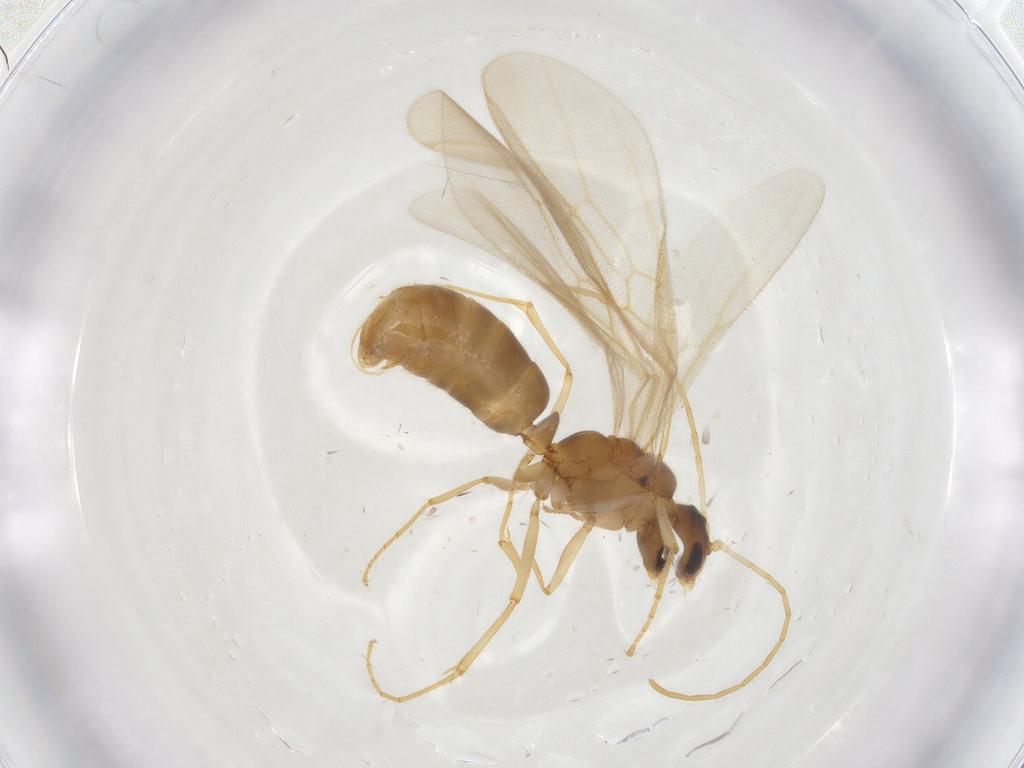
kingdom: Animalia
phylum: Arthropoda
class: Insecta
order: Hymenoptera
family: Formicidae
